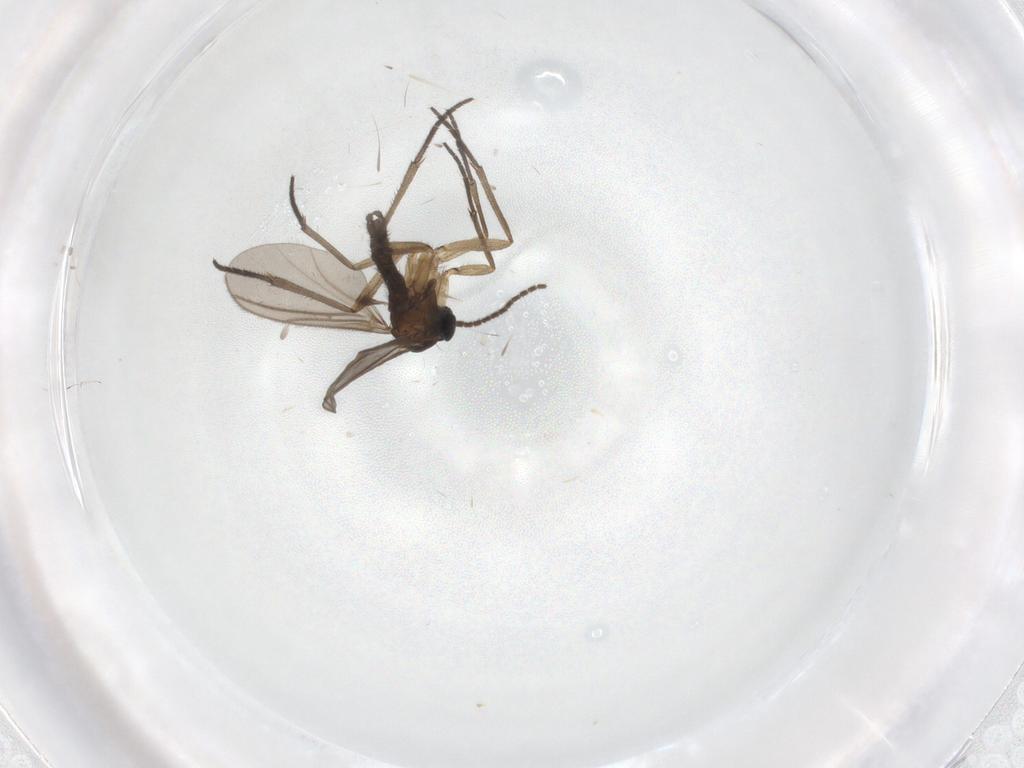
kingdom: Animalia
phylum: Arthropoda
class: Insecta
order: Diptera
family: Sciaridae
